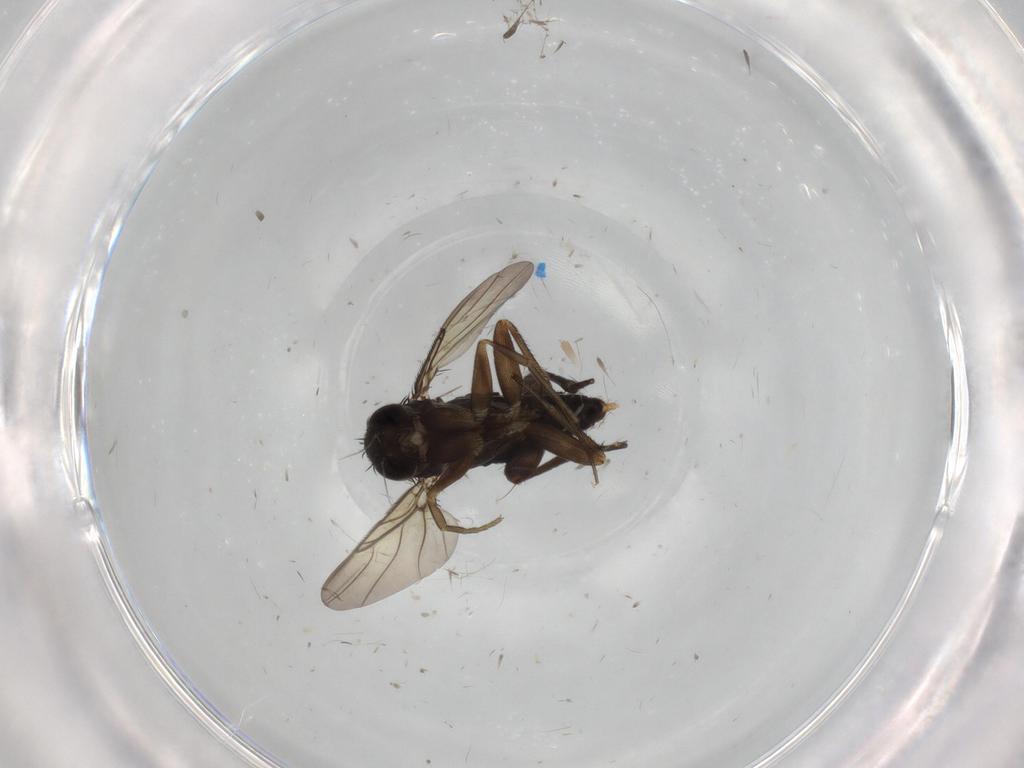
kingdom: Animalia
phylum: Arthropoda
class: Insecta
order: Diptera
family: Phoridae
